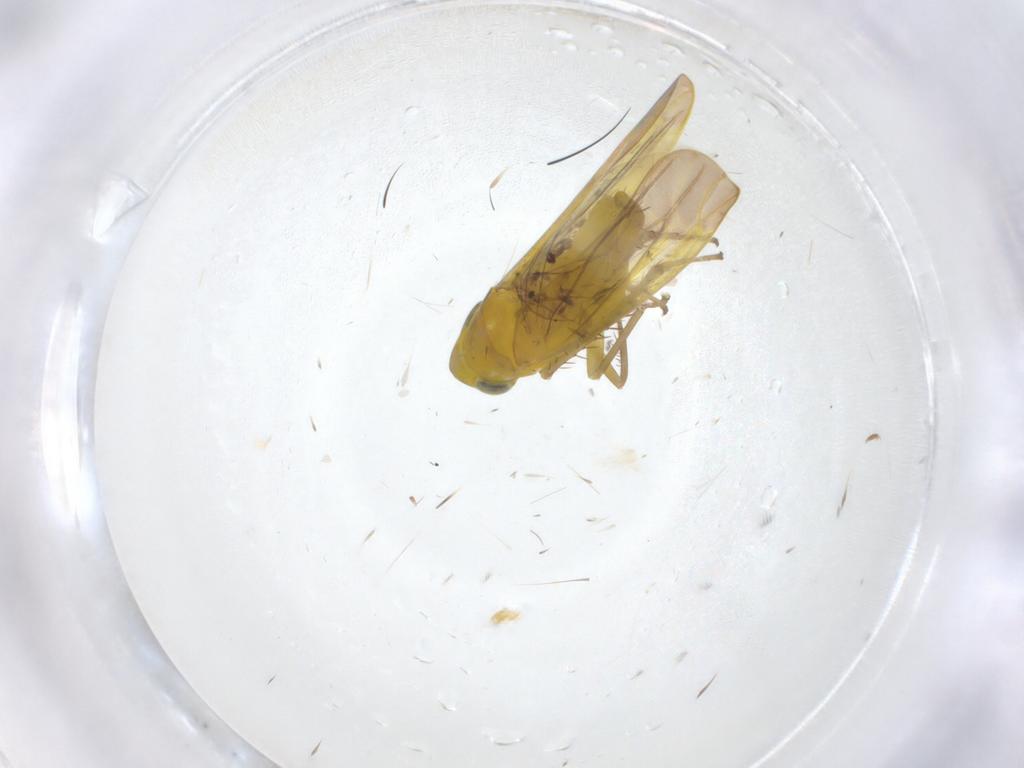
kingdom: Animalia
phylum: Arthropoda
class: Insecta
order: Hemiptera
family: Cicadellidae
